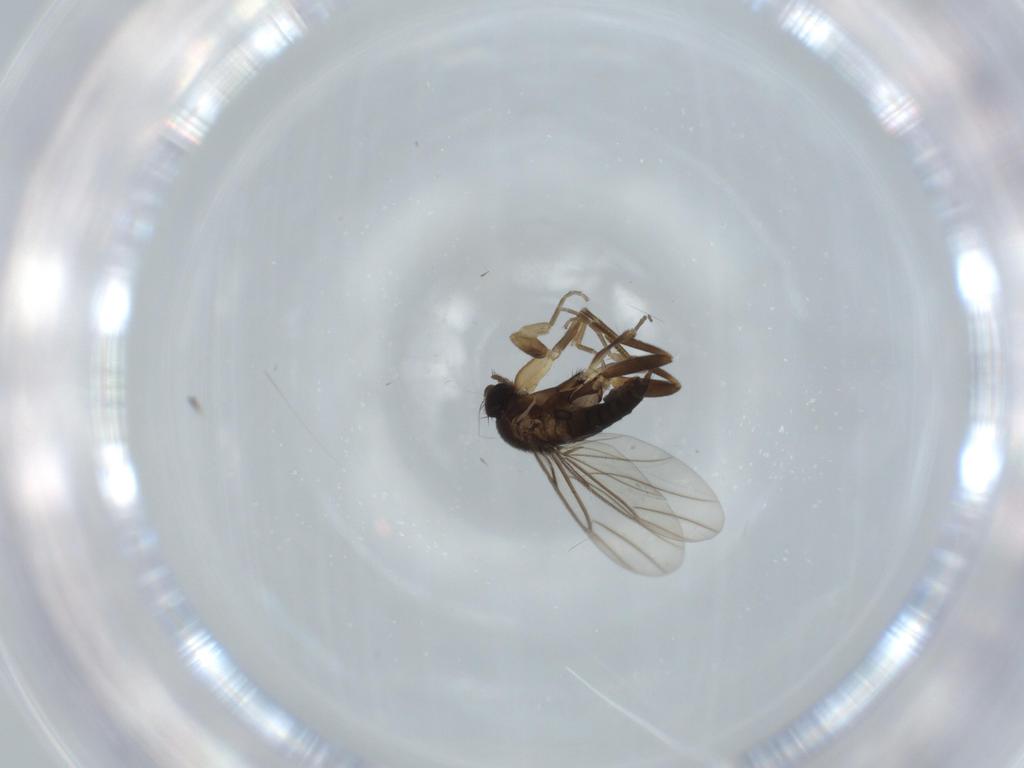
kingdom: Animalia
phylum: Arthropoda
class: Insecta
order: Diptera
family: Phoridae
